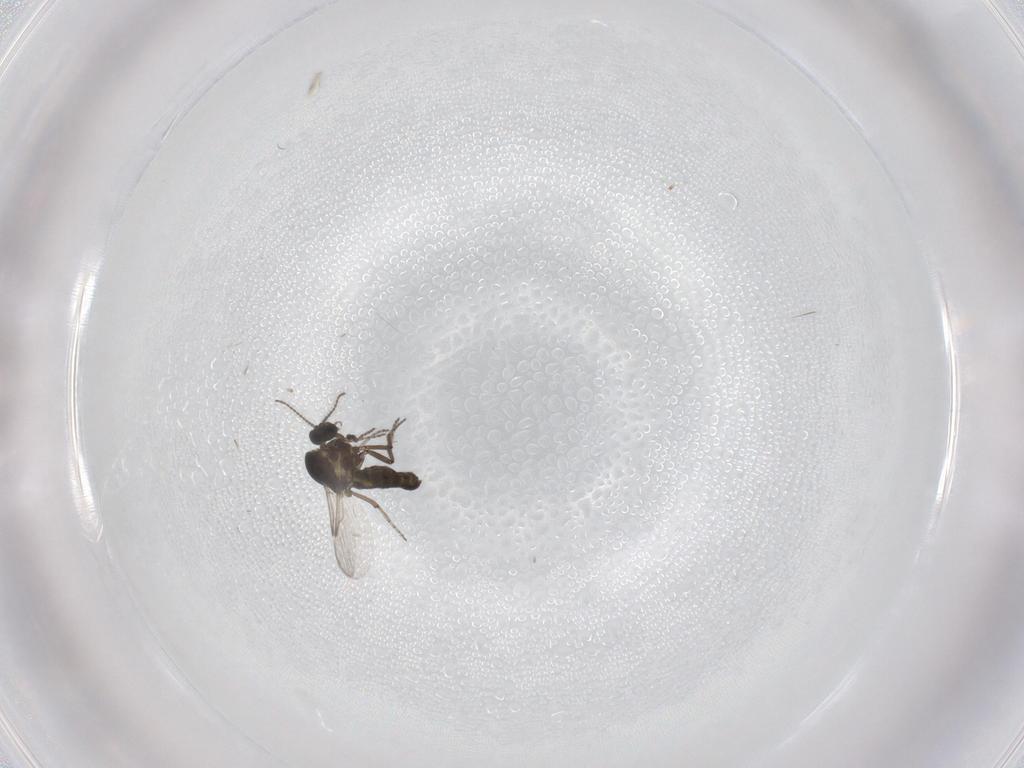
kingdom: Animalia
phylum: Arthropoda
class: Insecta
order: Diptera
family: Ceratopogonidae
